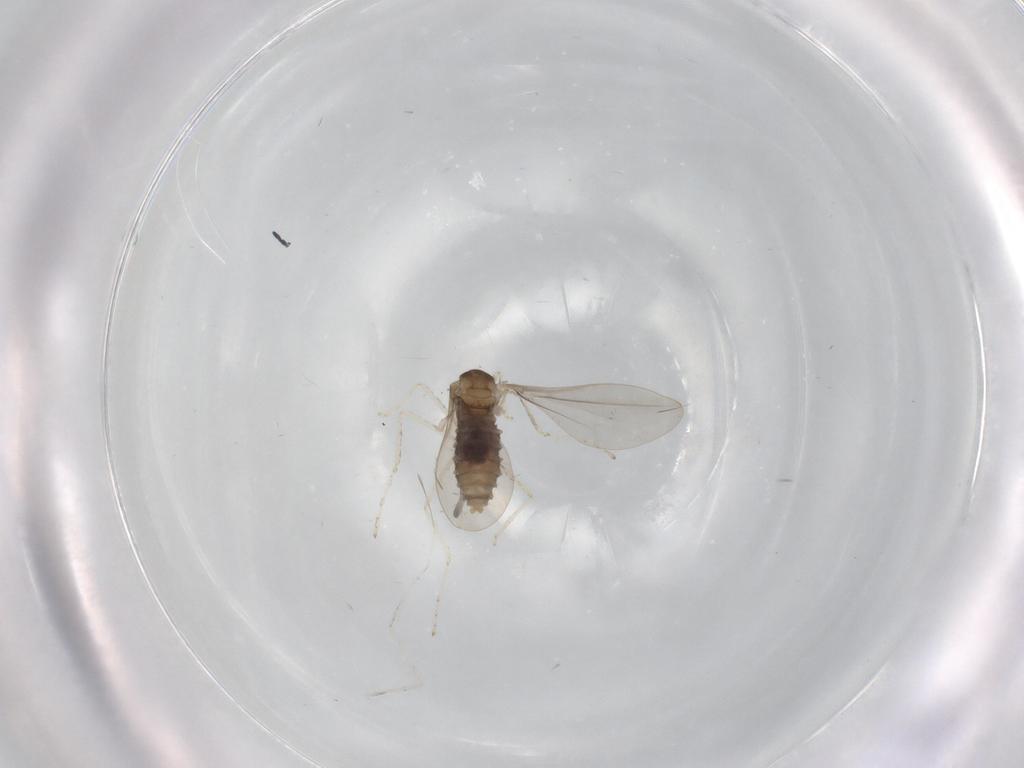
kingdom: Animalia
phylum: Arthropoda
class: Insecta
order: Diptera
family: Cecidomyiidae
